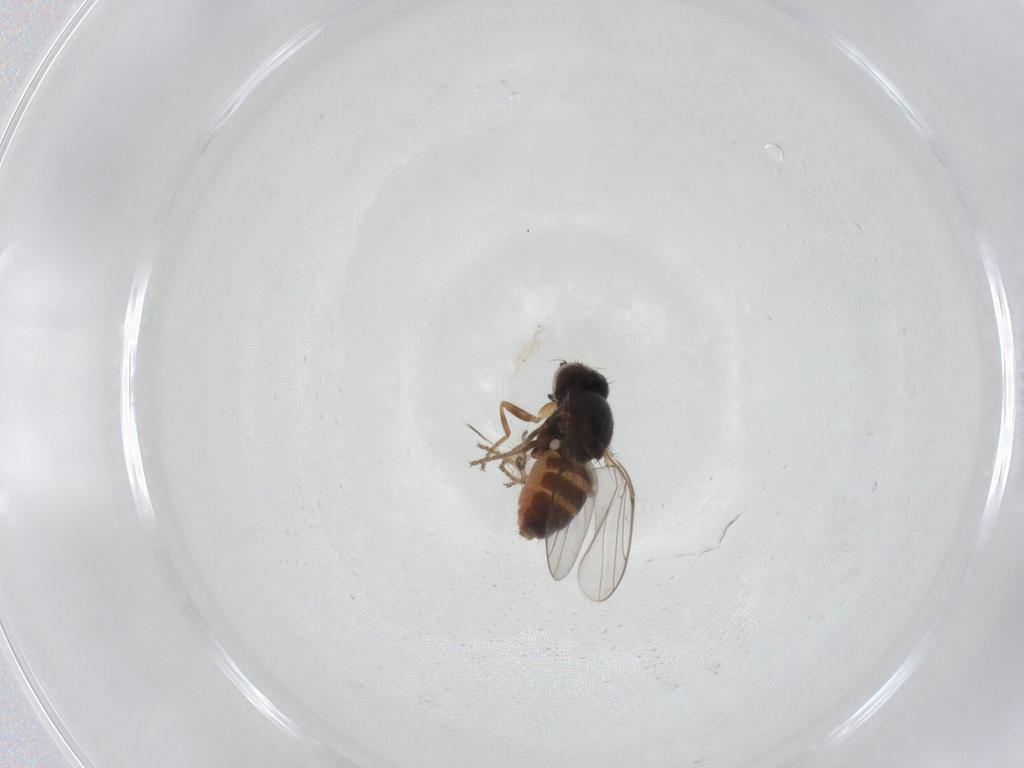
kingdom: Animalia
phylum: Arthropoda
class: Insecta
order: Diptera
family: Chloropidae
